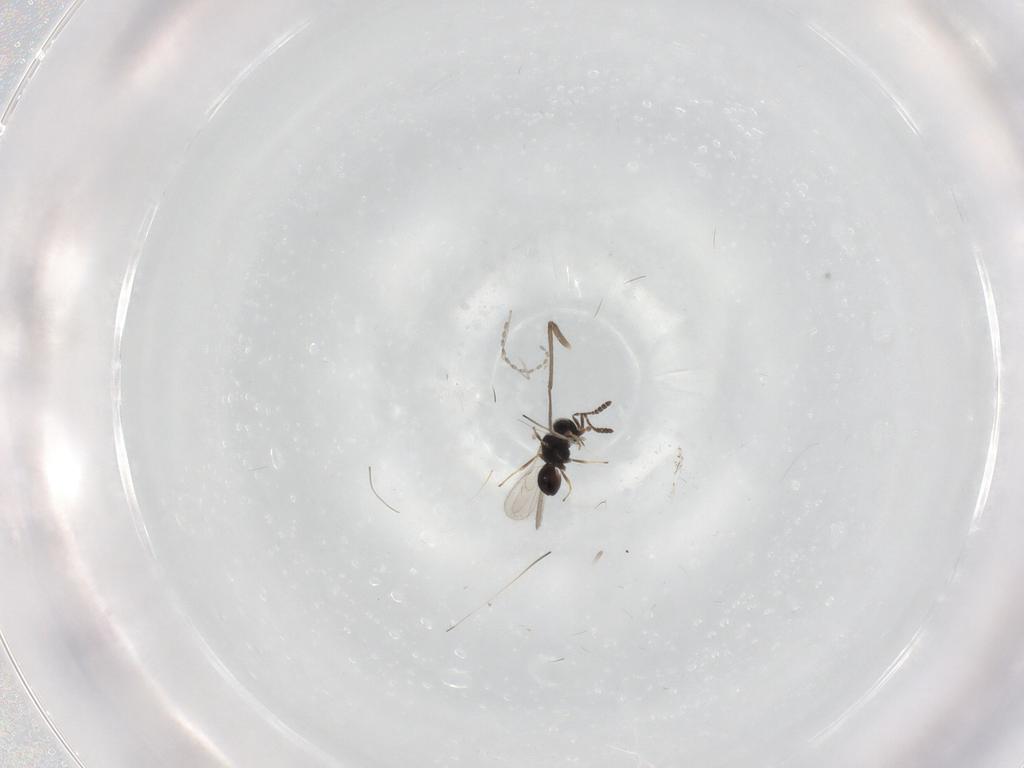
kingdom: Animalia
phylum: Arthropoda
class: Insecta
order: Hymenoptera
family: Scelionidae
